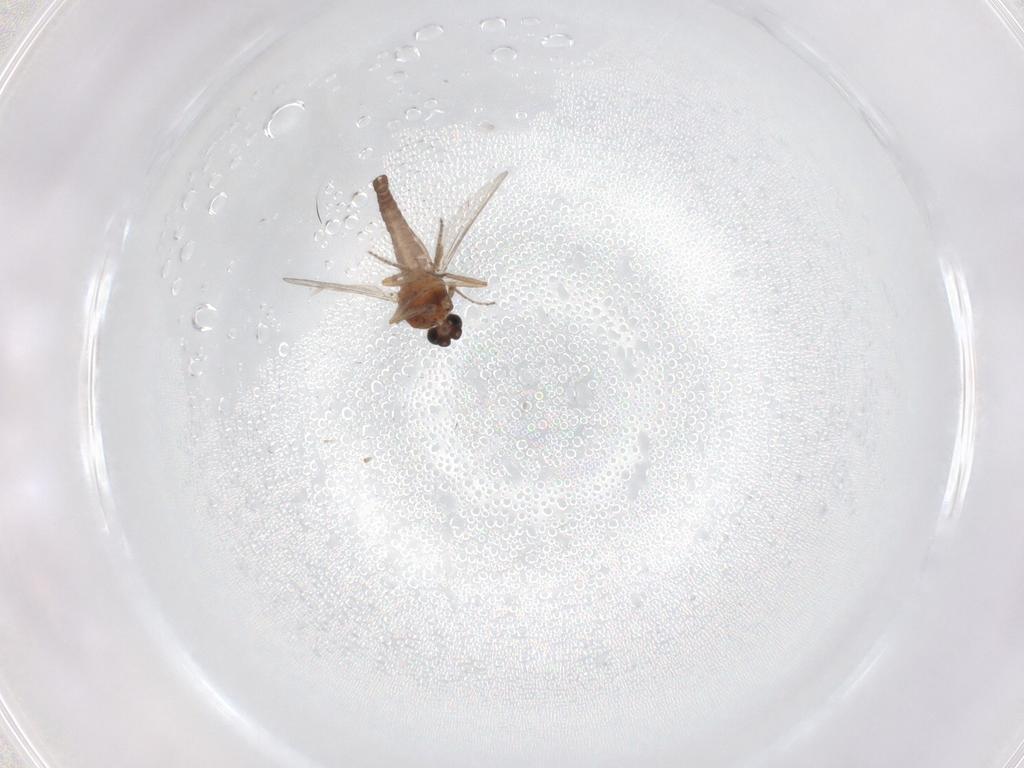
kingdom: Animalia
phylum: Arthropoda
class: Insecta
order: Diptera
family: Ceratopogonidae
